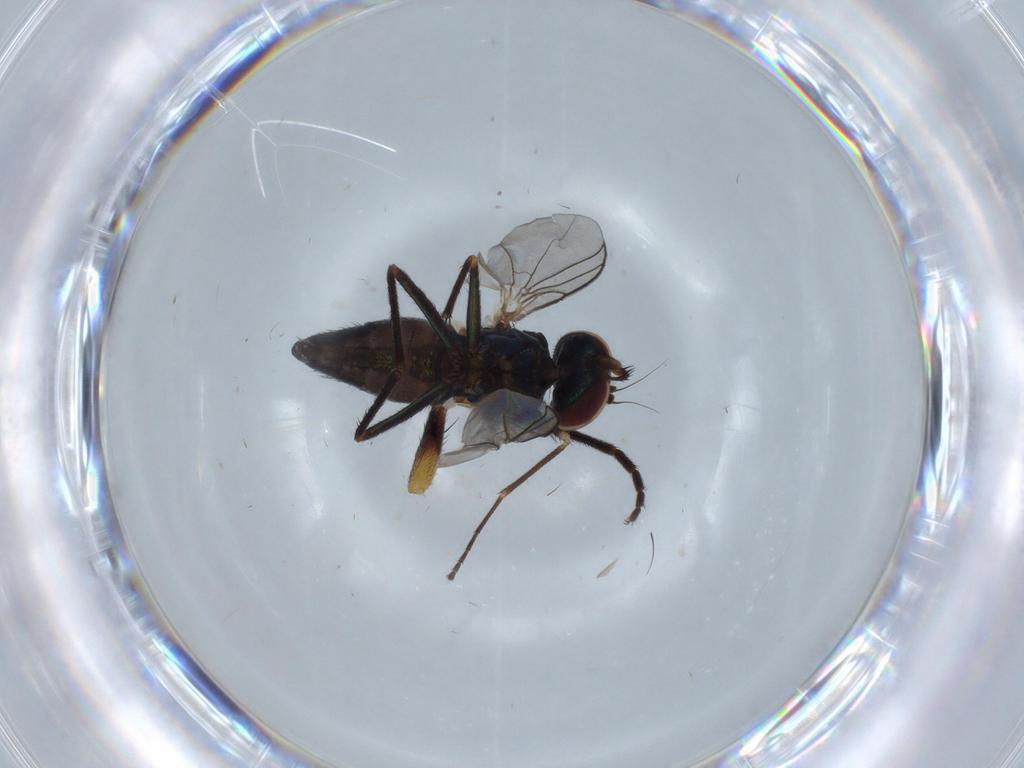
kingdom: Animalia
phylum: Arthropoda
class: Insecta
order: Diptera
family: Dolichopodidae
